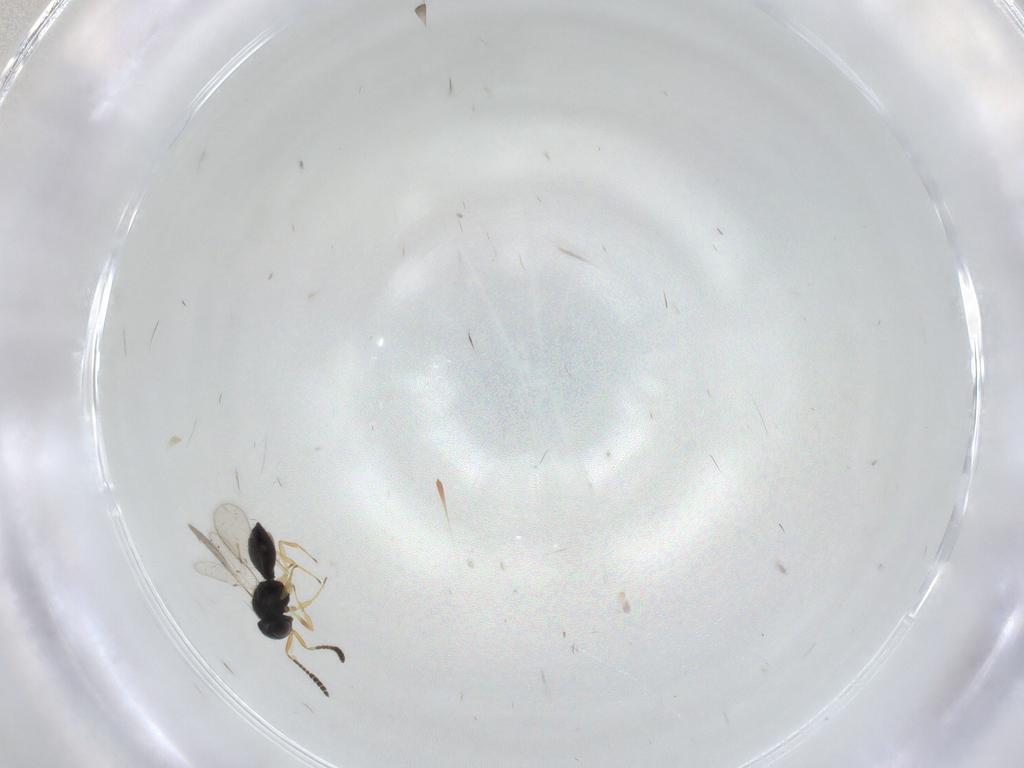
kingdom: Animalia
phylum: Arthropoda
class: Insecta
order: Hymenoptera
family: Scelionidae
